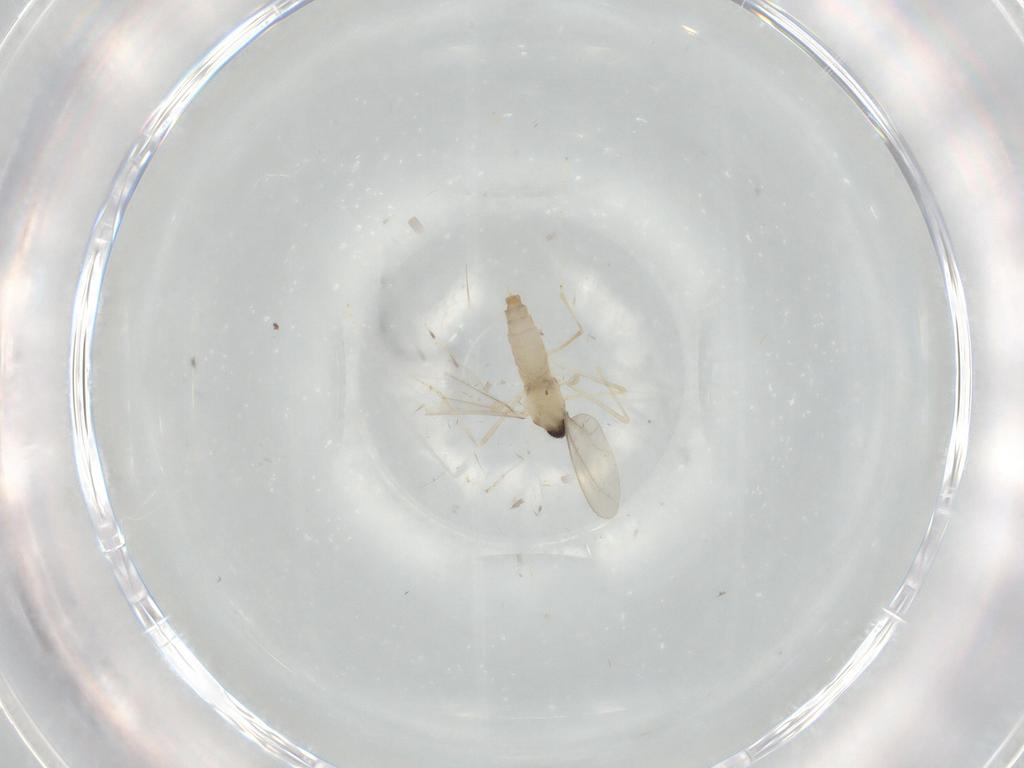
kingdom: Animalia
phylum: Arthropoda
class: Insecta
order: Diptera
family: Cecidomyiidae
